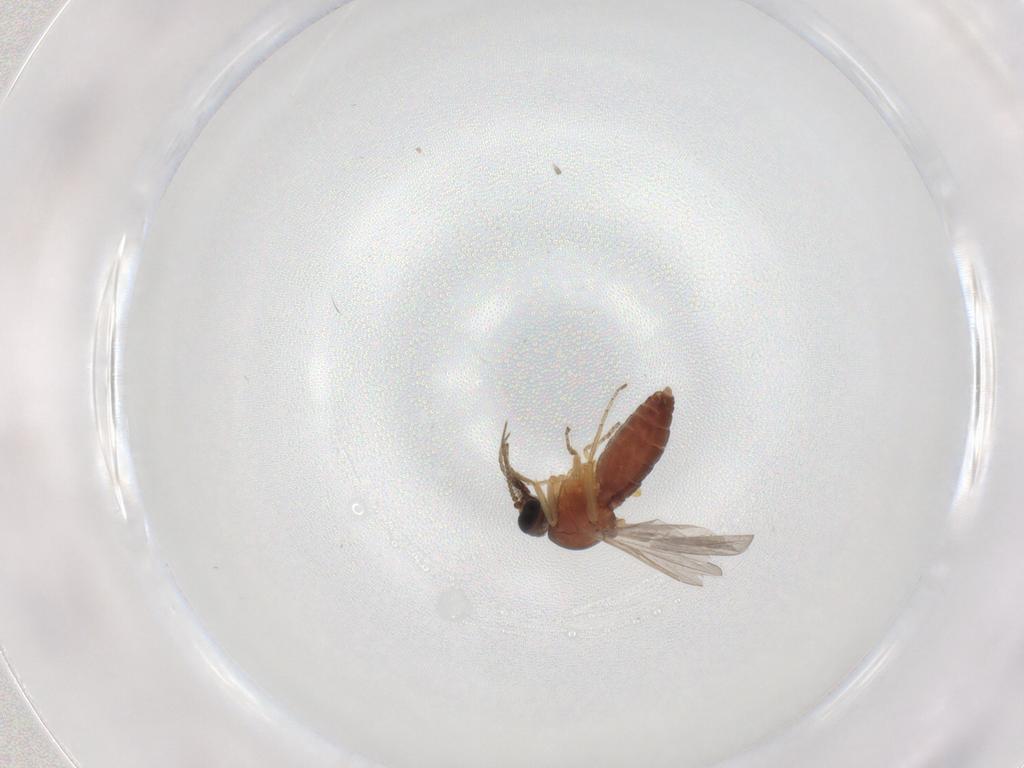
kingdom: Animalia
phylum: Arthropoda
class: Insecta
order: Diptera
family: Ceratopogonidae
